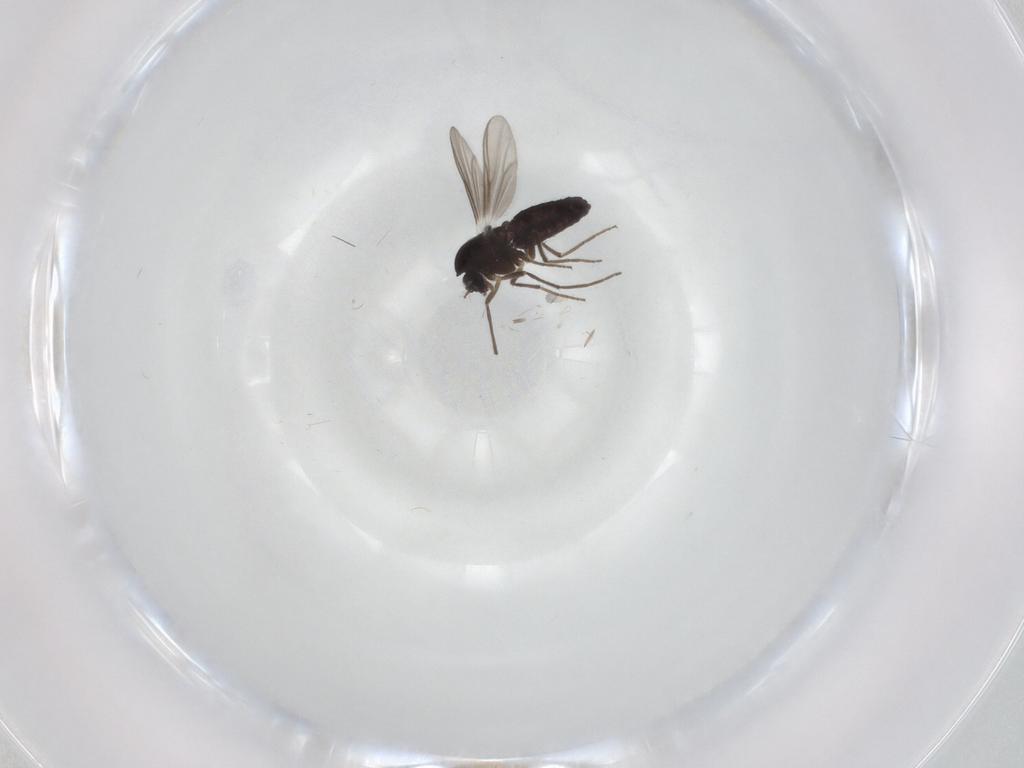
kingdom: Animalia
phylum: Arthropoda
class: Insecta
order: Diptera
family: Chironomidae
